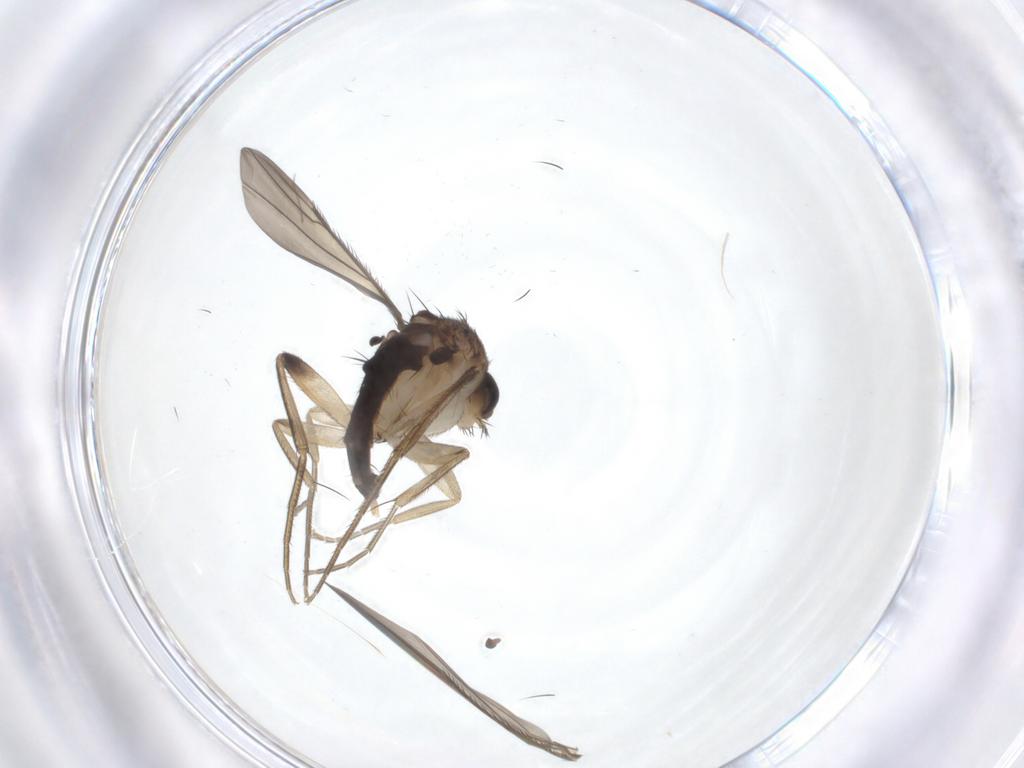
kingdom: Animalia
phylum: Arthropoda
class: Insecta
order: Diptera
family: Phoridae
